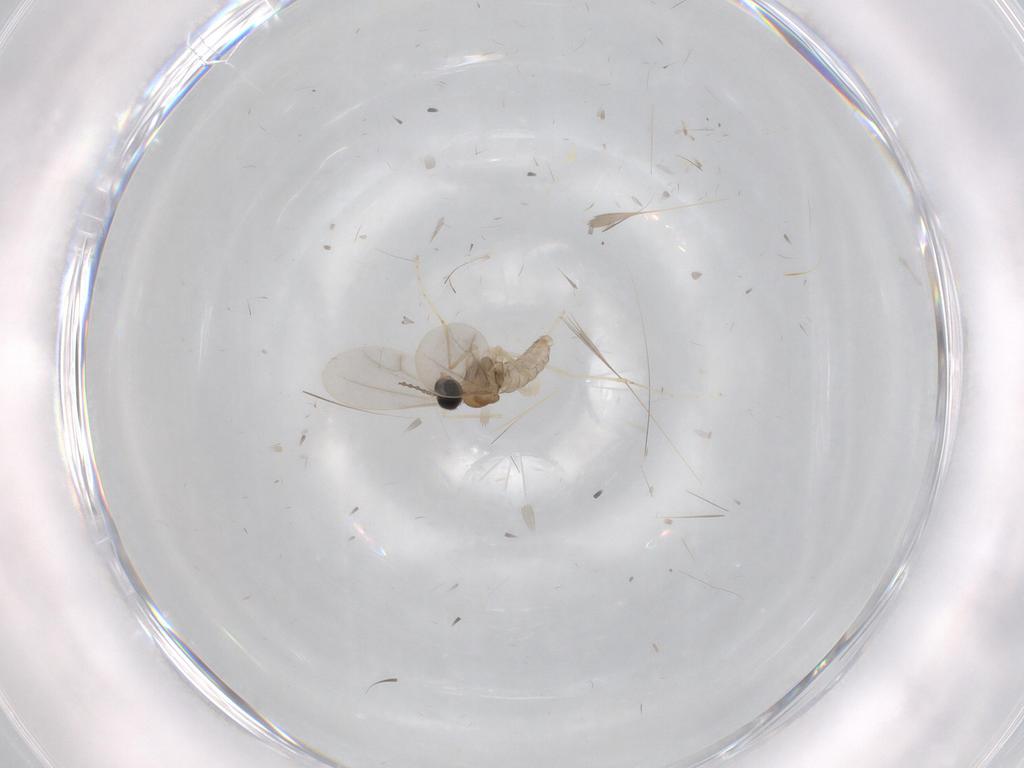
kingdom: Animalia
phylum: Arthropoda
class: Insecta
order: Diptera
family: Cecidomyiidae
